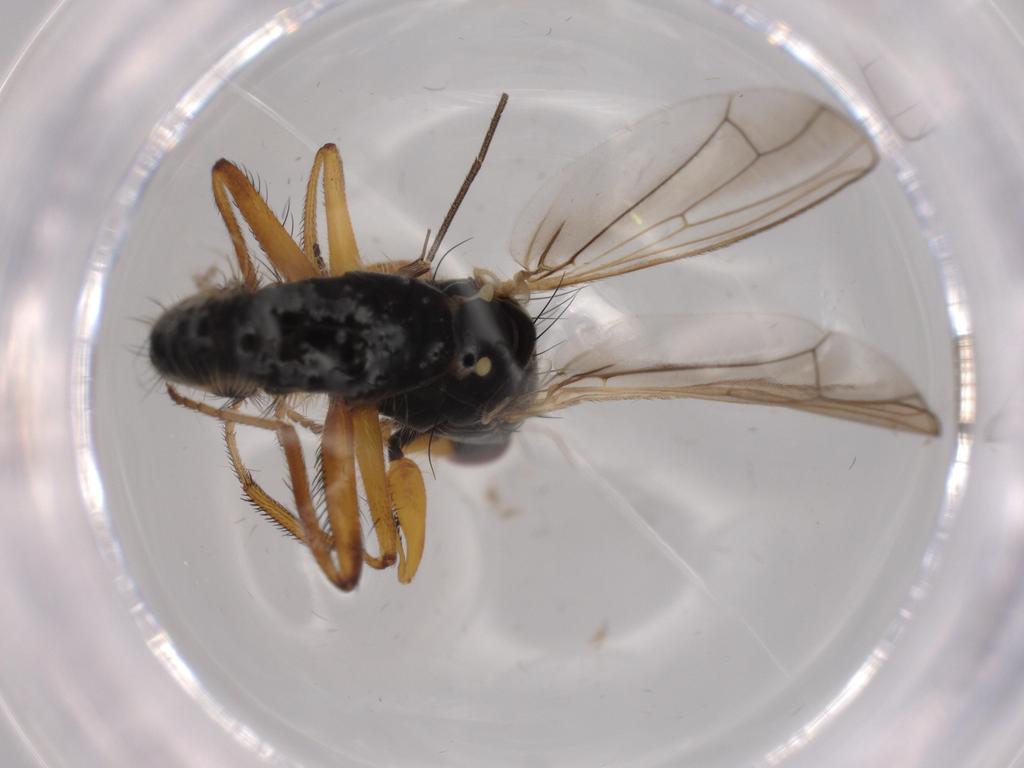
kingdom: Animalia
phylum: Arthropoda
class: Insecta
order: Diptera
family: Scathophagidae
